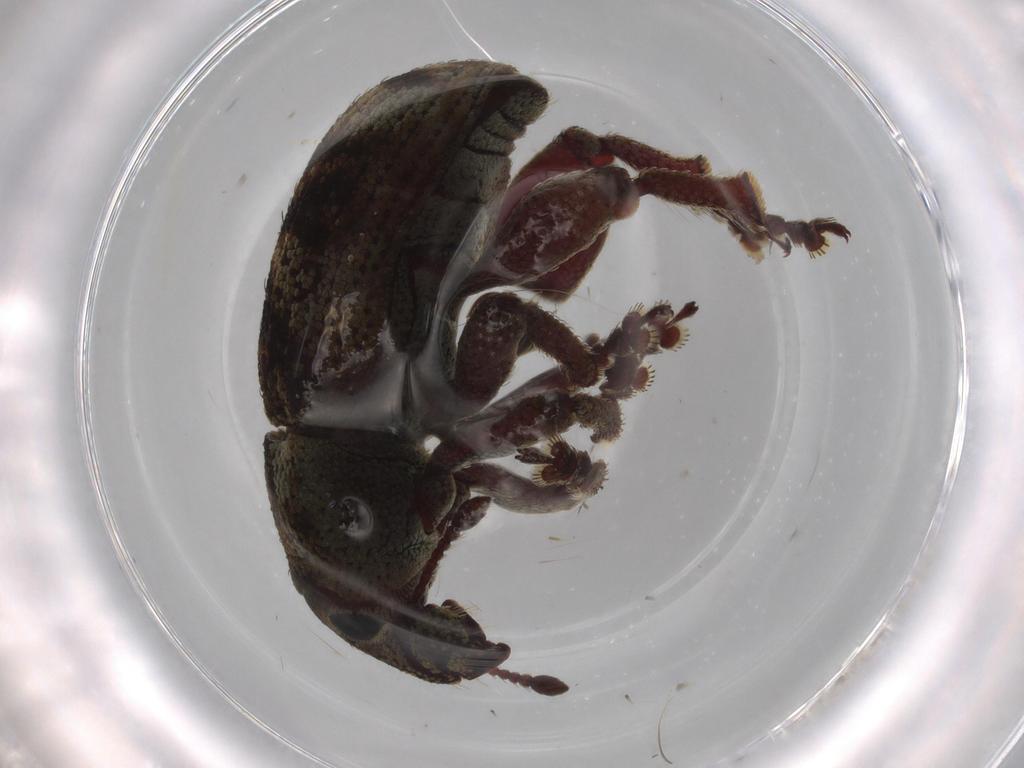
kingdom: Animalia
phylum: Arthropoda
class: Insecta
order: Coleoptera
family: Curculionidae
